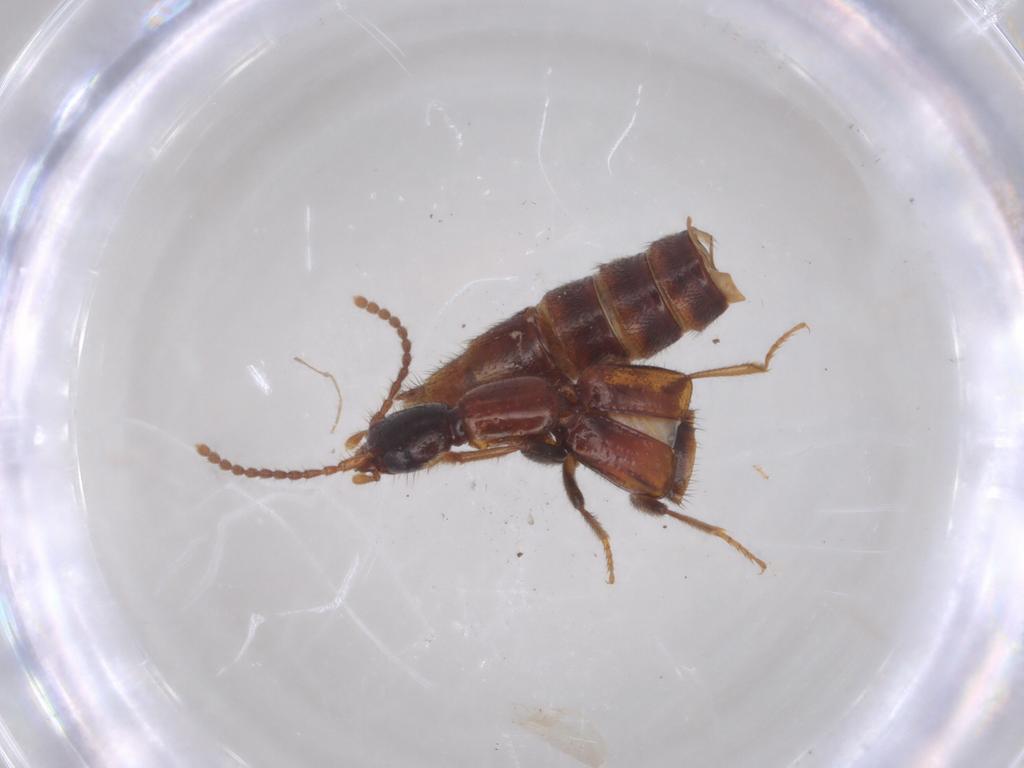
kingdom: Animalia
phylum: Arthropoda
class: Insecta
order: Coleoptera
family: Staphylinidae
